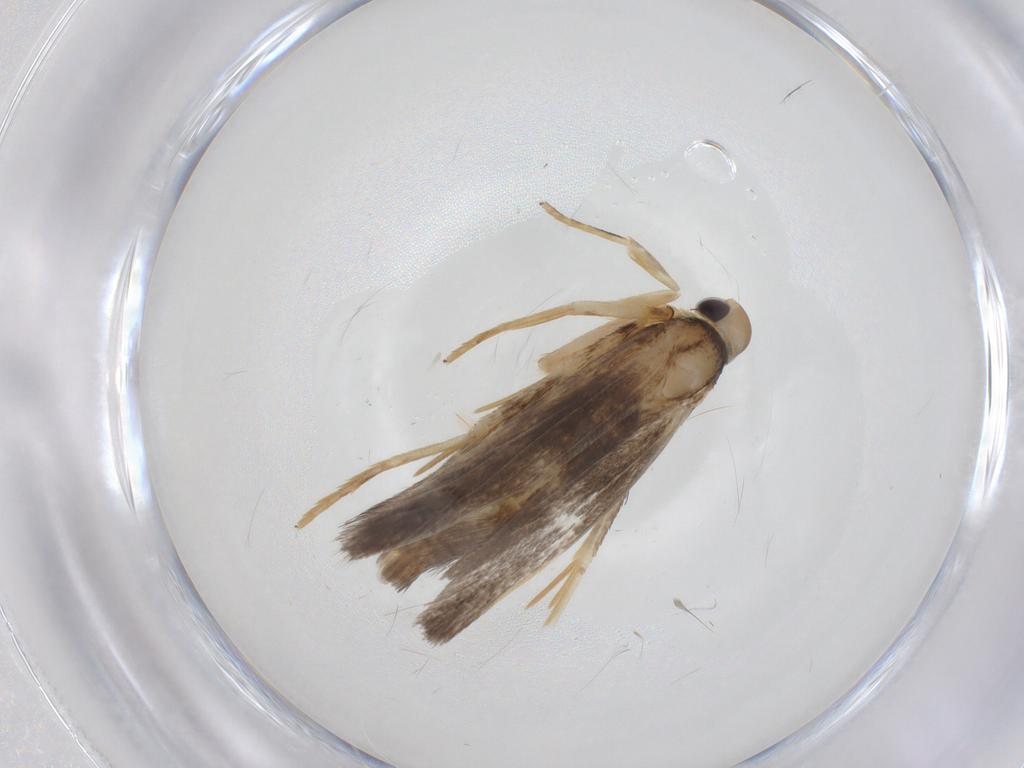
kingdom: Animalia
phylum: Arthropoda
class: Insecta
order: Lepidoptera
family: Cosmopterigidae
